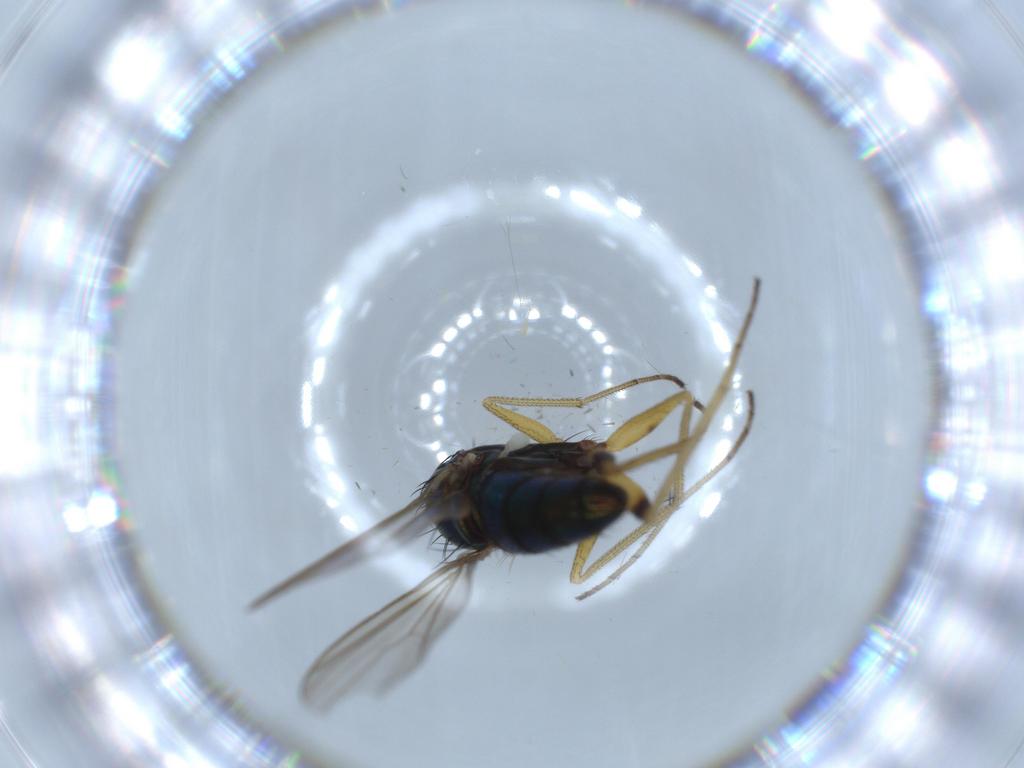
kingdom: Animalia
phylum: Arthropoda
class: Insecta
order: Diptera
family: Dolichopodidae
